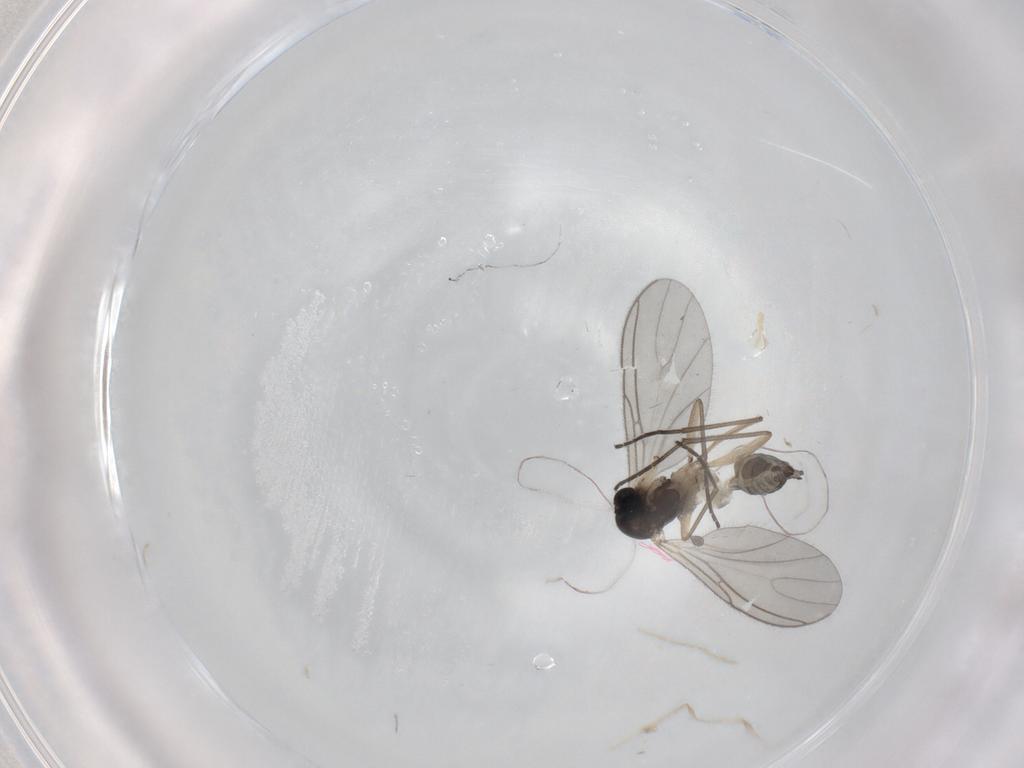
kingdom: Animalia
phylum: Arthropoda
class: Insecta
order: Diptera
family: Sciaridae
